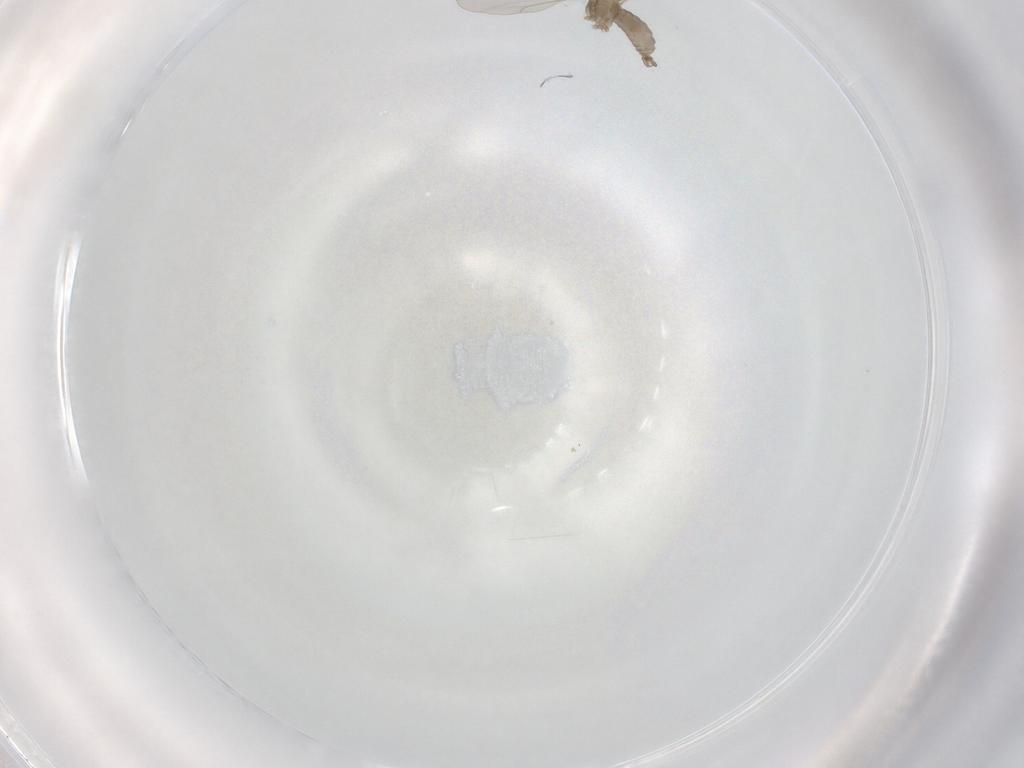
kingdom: Animalia
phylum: Arthropoda
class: Insecta
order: Diptera
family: Cecidomyiidae
